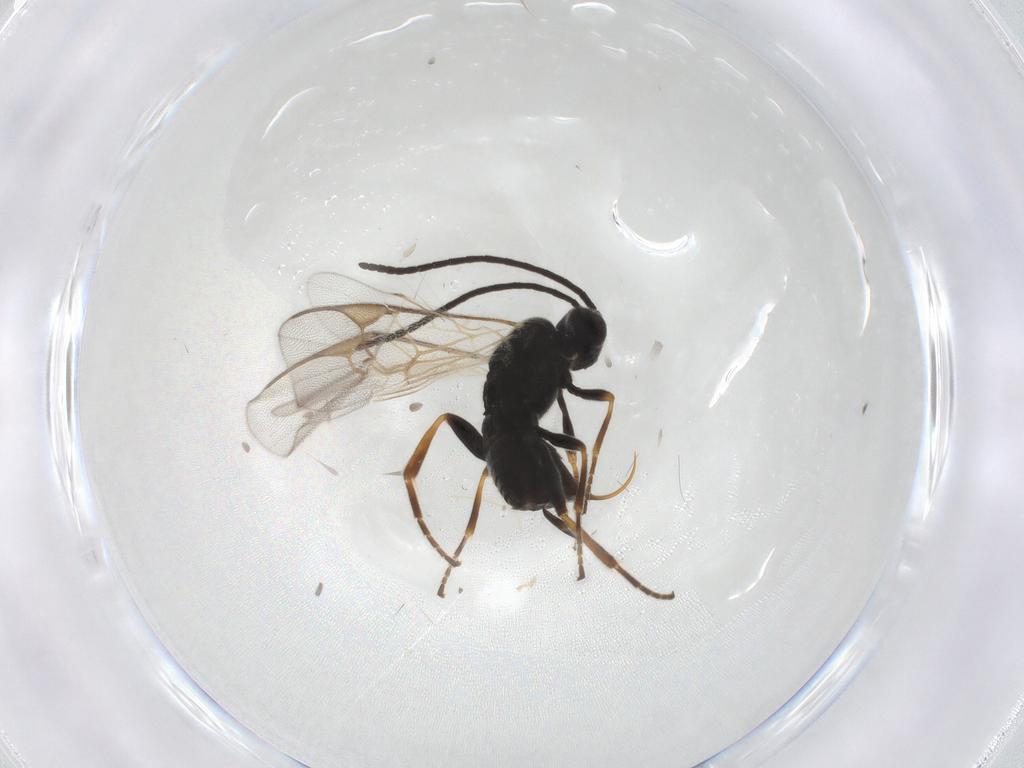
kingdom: Animalia
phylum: Arthropoda
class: Insecta
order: Hymenoptera
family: Braconidae
